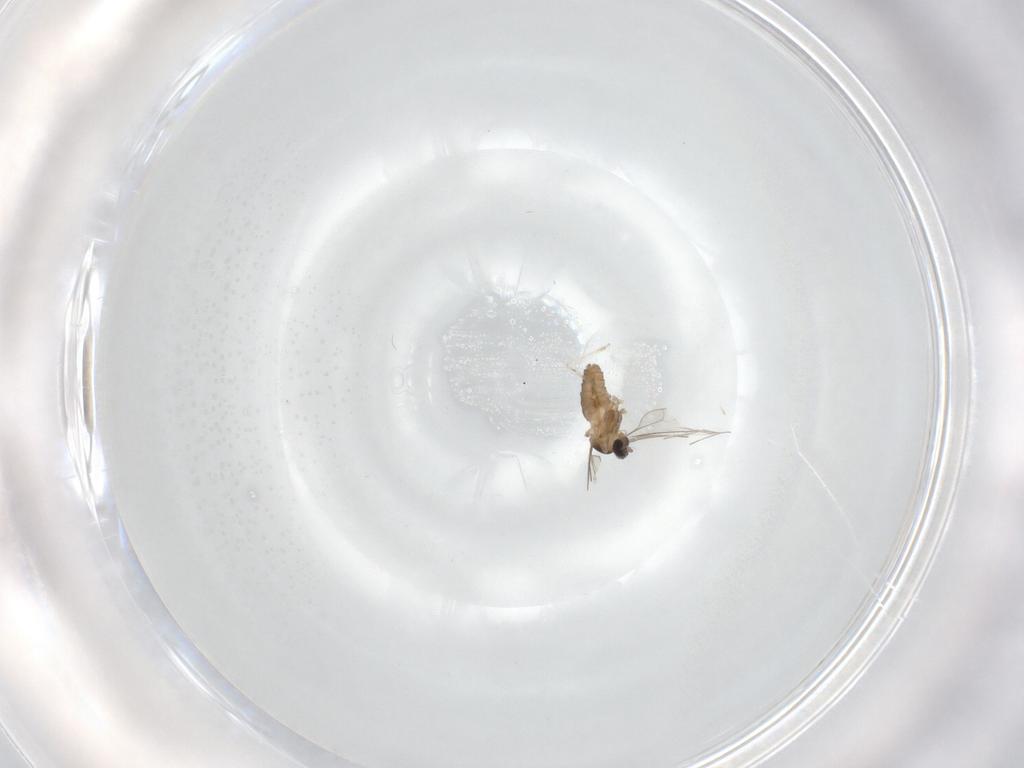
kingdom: Animalia
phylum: Arthropoda
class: Insecta
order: Diptera
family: Cecidomyiidae
